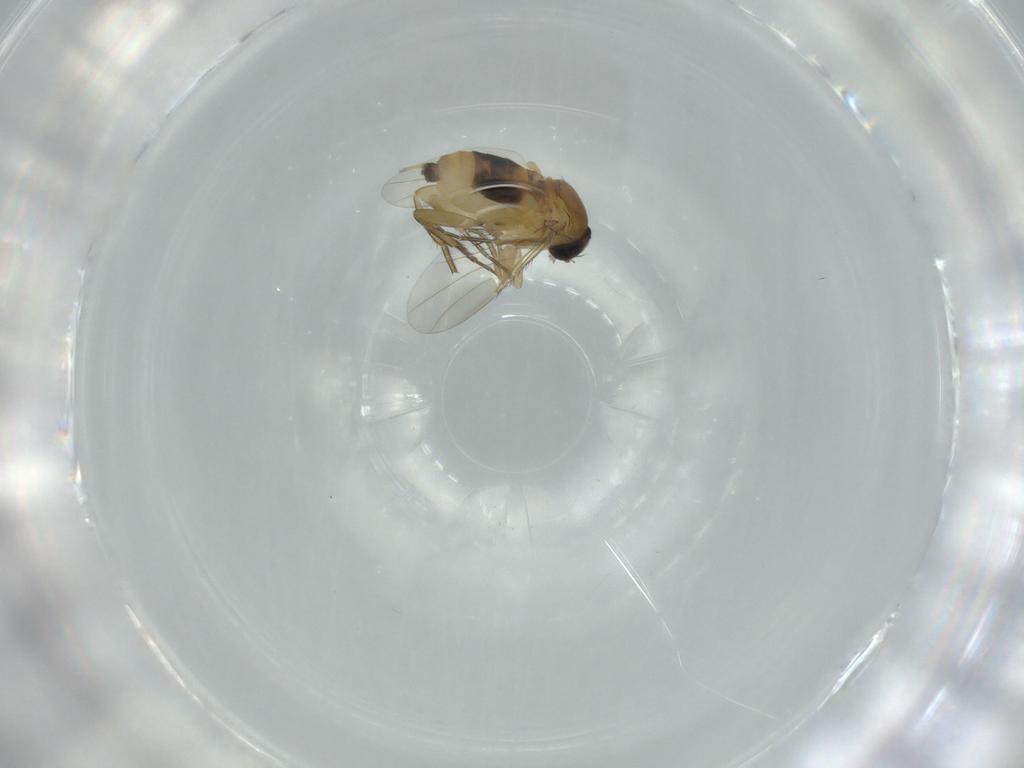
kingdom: Animalia
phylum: Arthropoda
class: Insecta
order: Diptera
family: Phoridae
